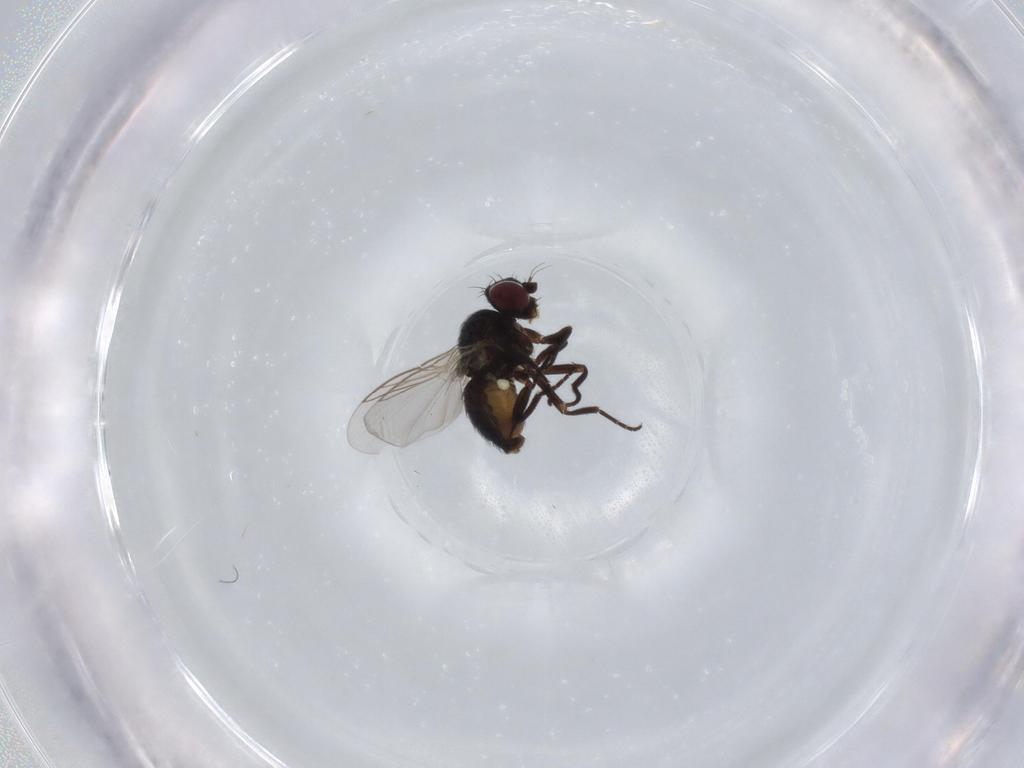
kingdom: Animalia
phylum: Arthropoda
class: Insecta
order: Diptera
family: Agromyzidae
